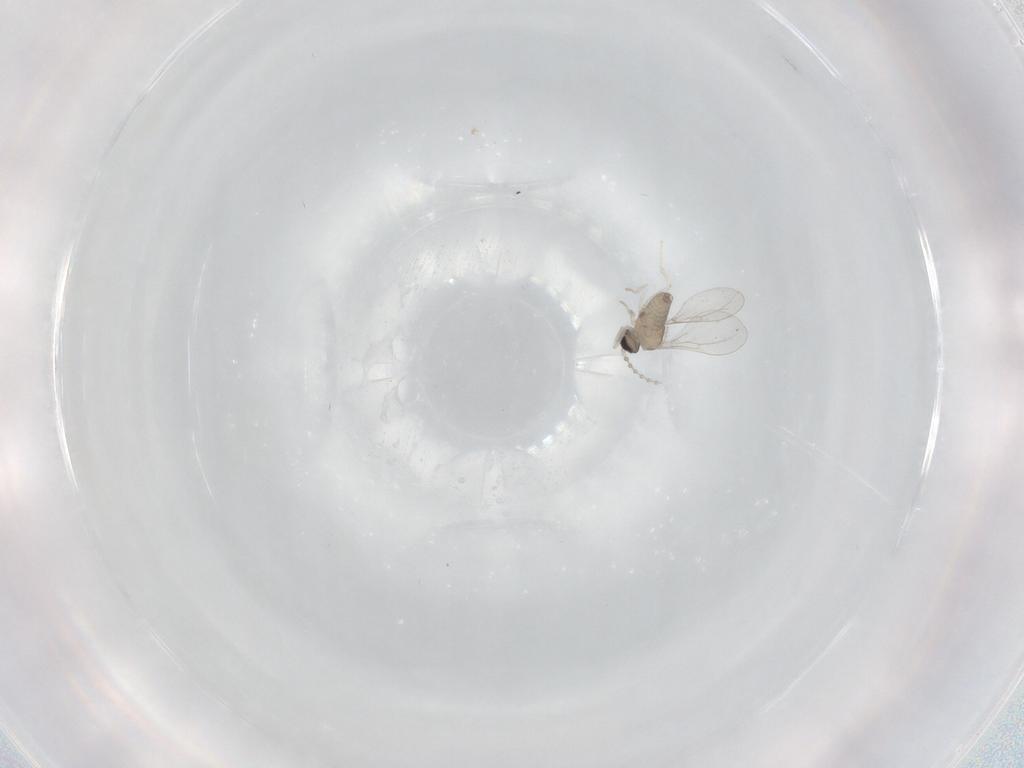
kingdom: Animalia
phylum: Arthropoda
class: Insecta
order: Diptera
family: Cecidomyiidae
